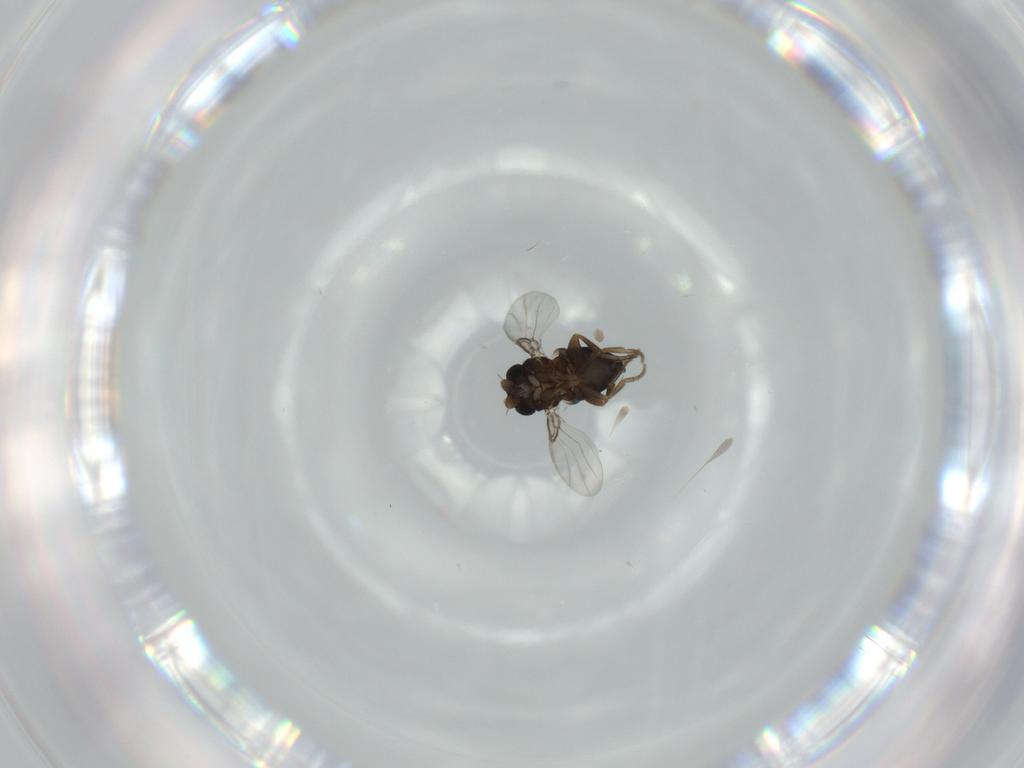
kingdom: Animalia
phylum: Arthropoda
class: Insecta
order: Diptera
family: Phoridae
